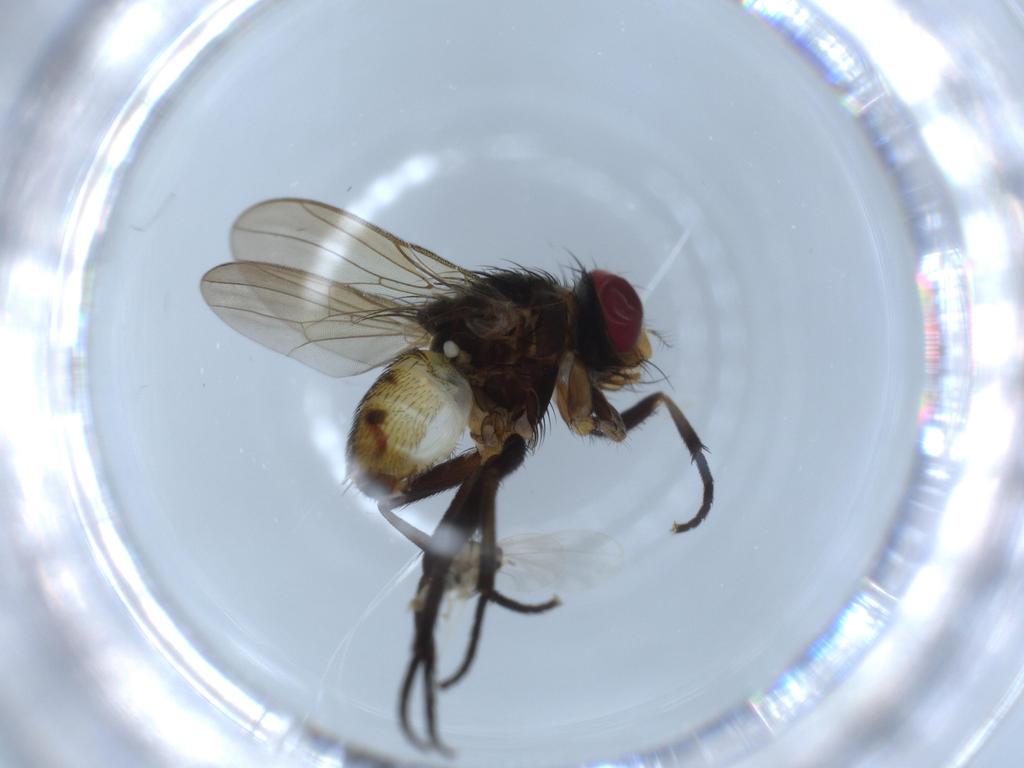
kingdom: Animalia
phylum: Arthropoda
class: Insecta
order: Diptera
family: Anthomyiidae
